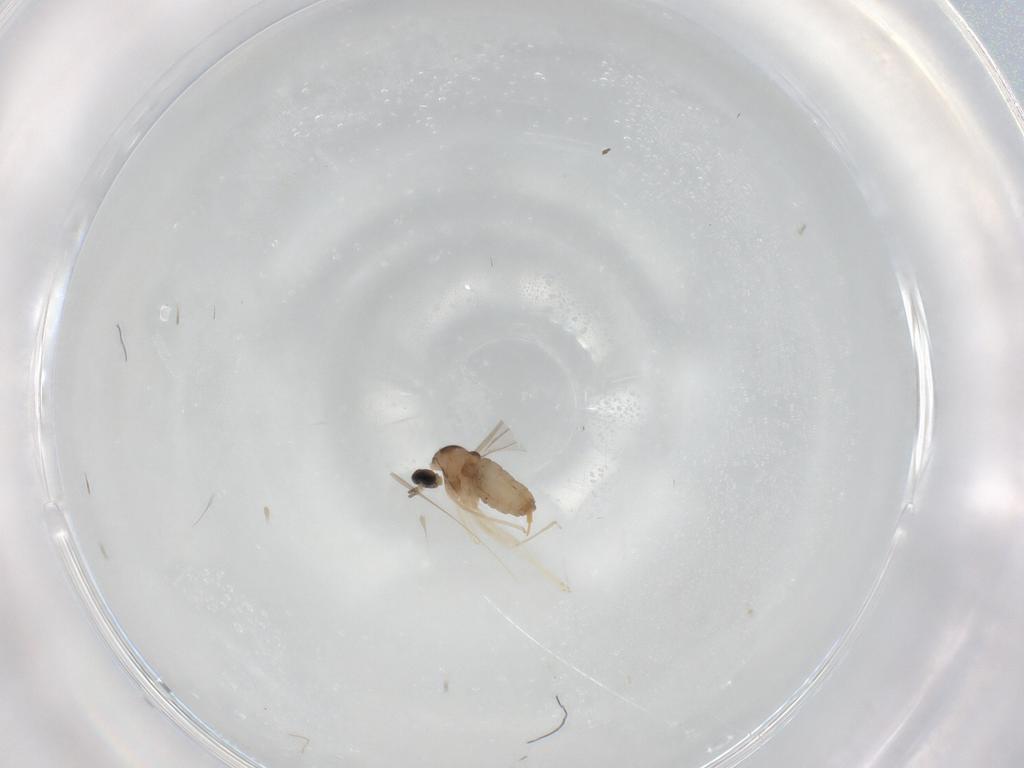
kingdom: Animalia
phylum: Arthropoda
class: Insecta
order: Diptera
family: Cecidomyiidae
